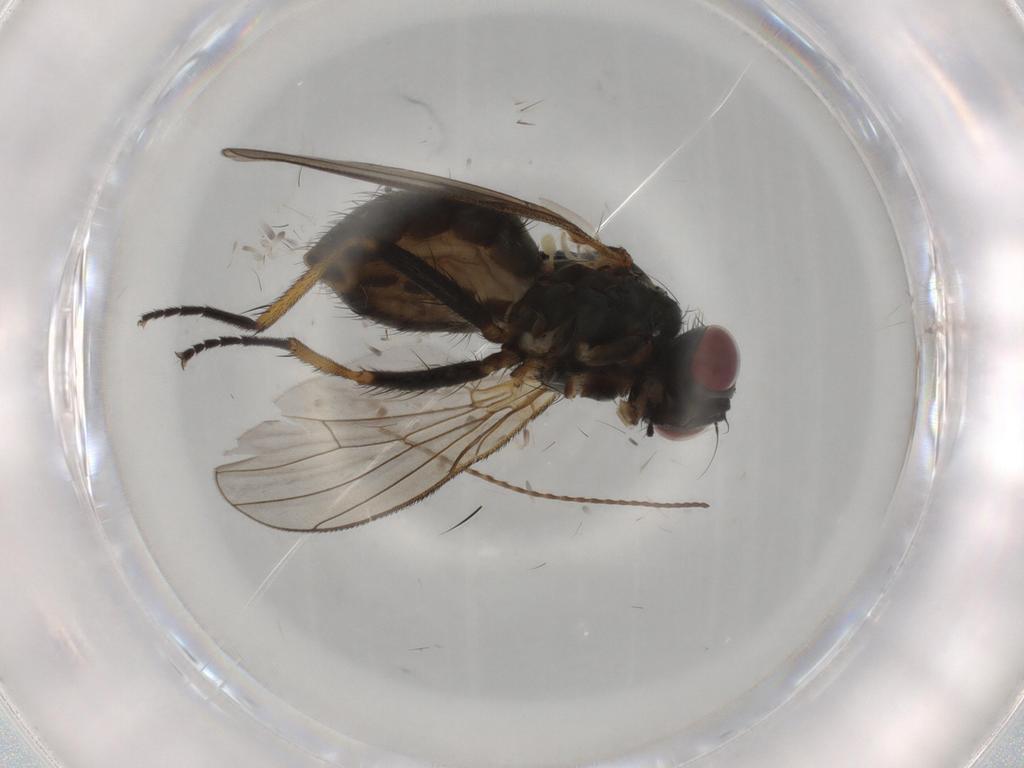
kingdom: Animalia
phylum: Arthropoda
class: Insecta
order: Diptera
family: Muscidae
